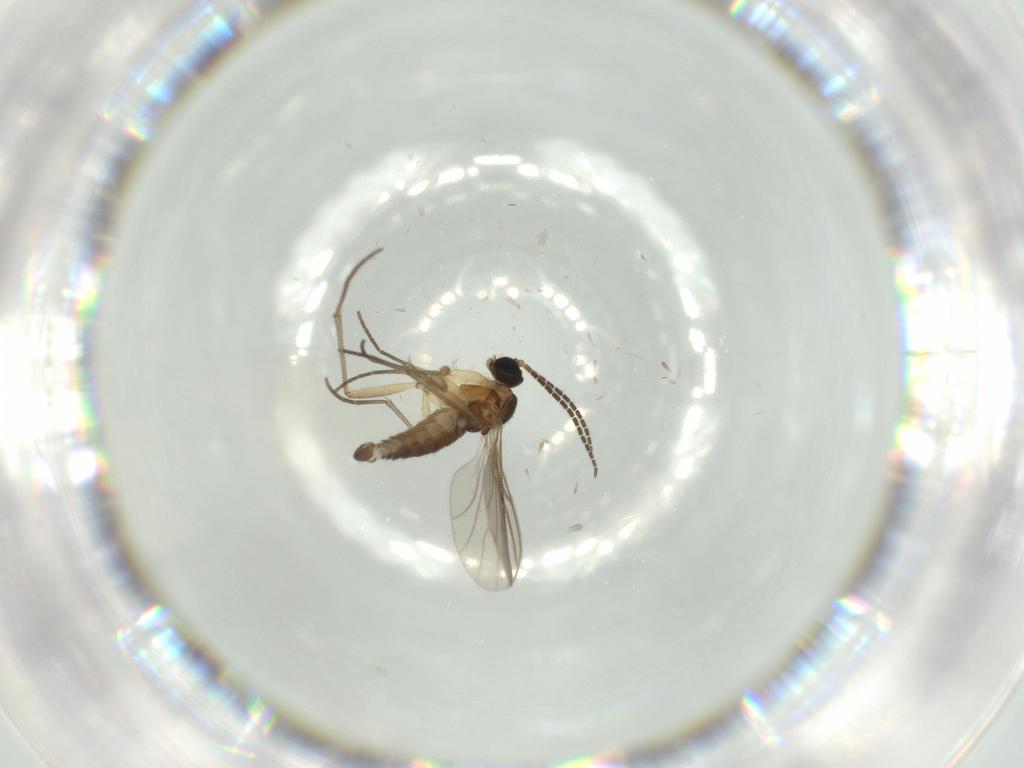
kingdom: Animalia
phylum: Arthropoda
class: Insecta
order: Diptera
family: Sciaridae
